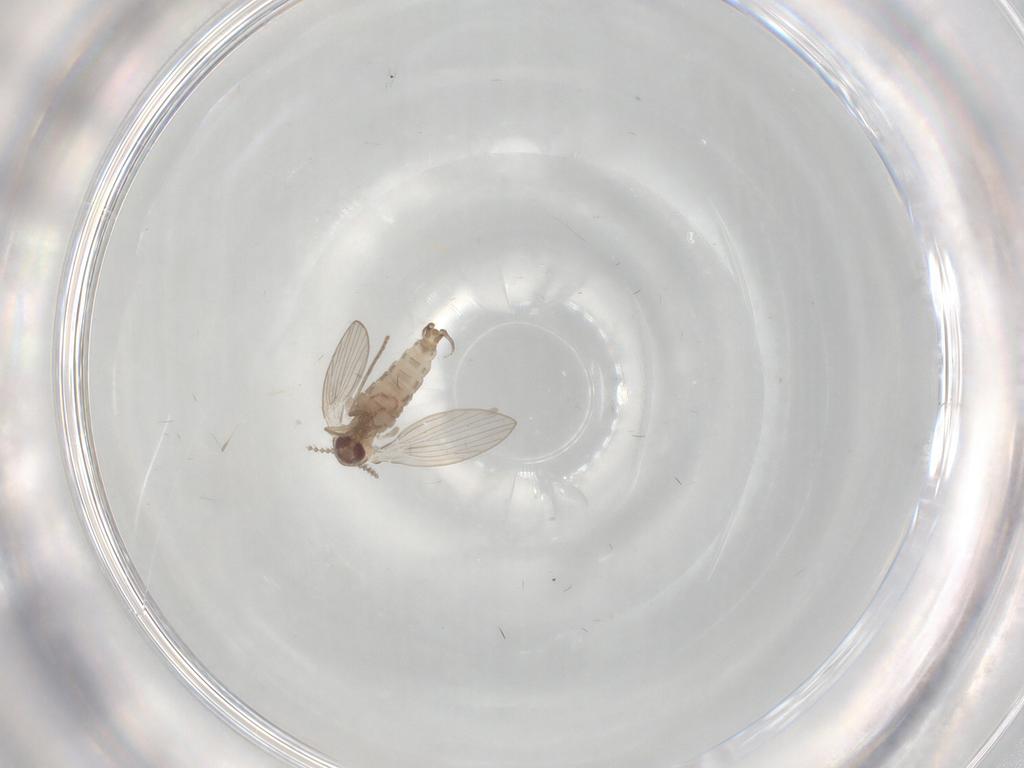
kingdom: Animalia
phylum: Arthropoda
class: Insecta
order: Diptera
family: Psychodidae
